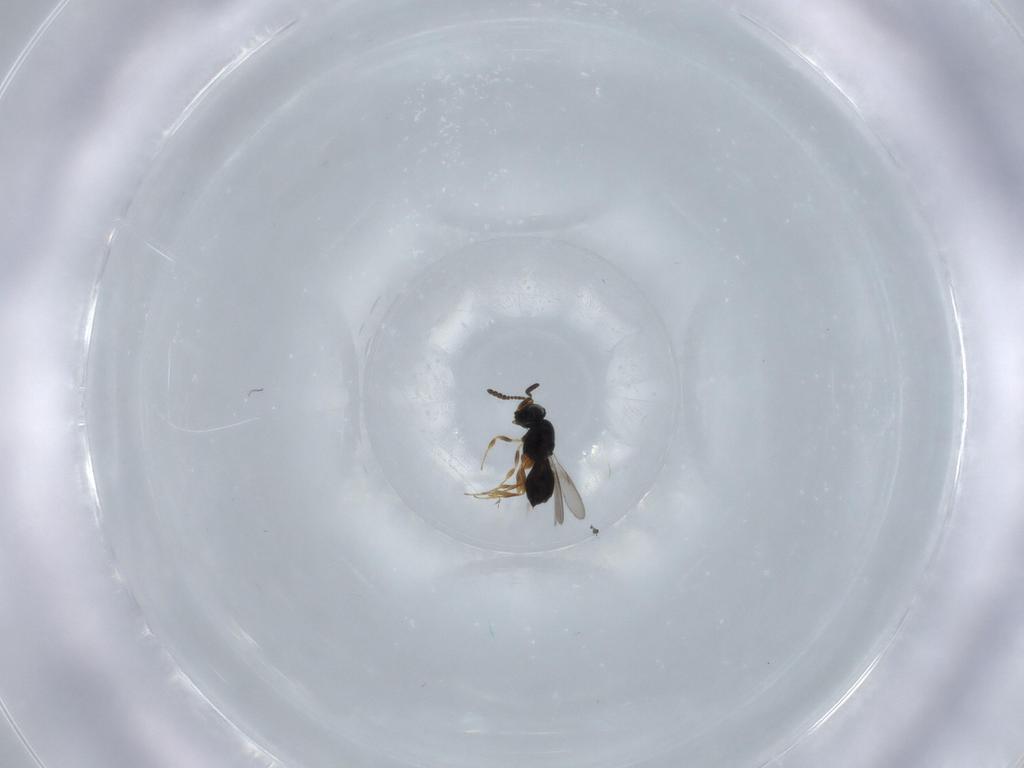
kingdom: Animalia
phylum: Arthropoda
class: Insecta
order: Hymenoptera
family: Scelionidae
